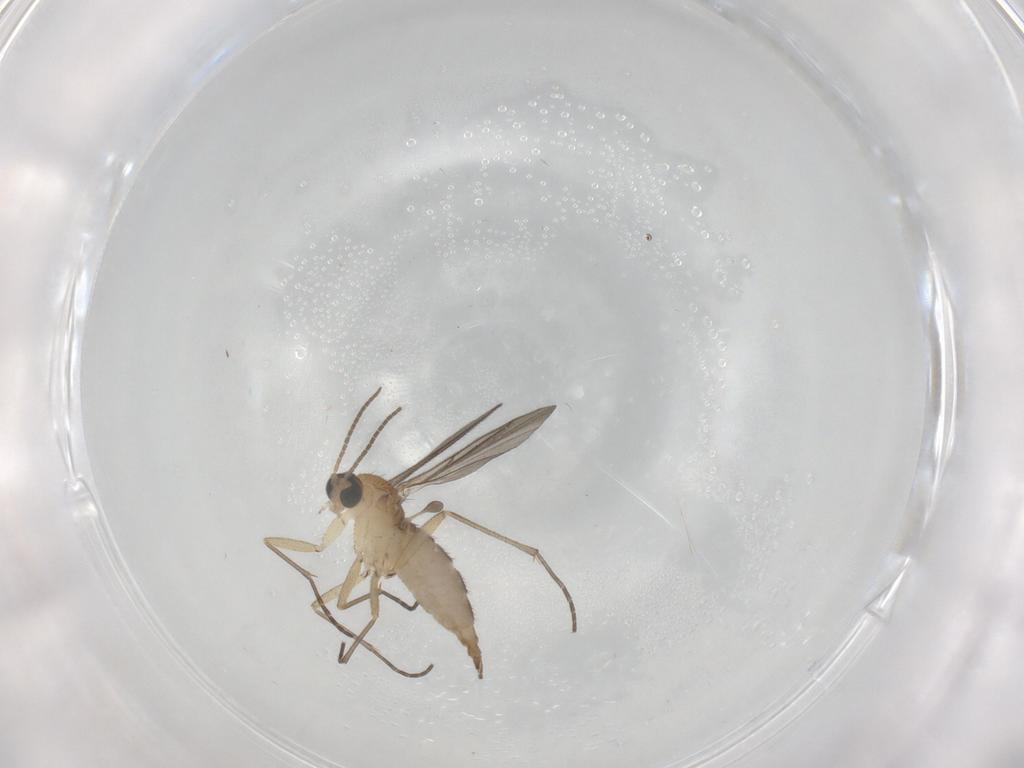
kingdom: Animalia
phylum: Arthropoda
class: Insecta
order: Diptera
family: Sciaridae
